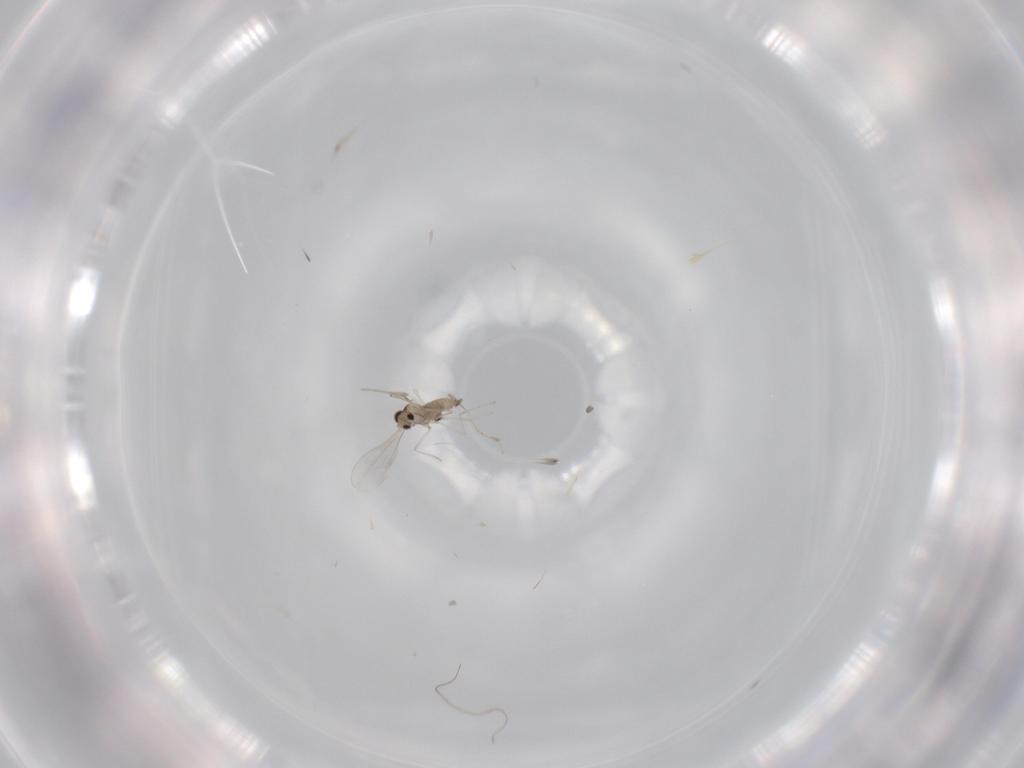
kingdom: Animalia
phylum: Arthropoda
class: Insecta
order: Diptera
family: Cecidomyiidae
